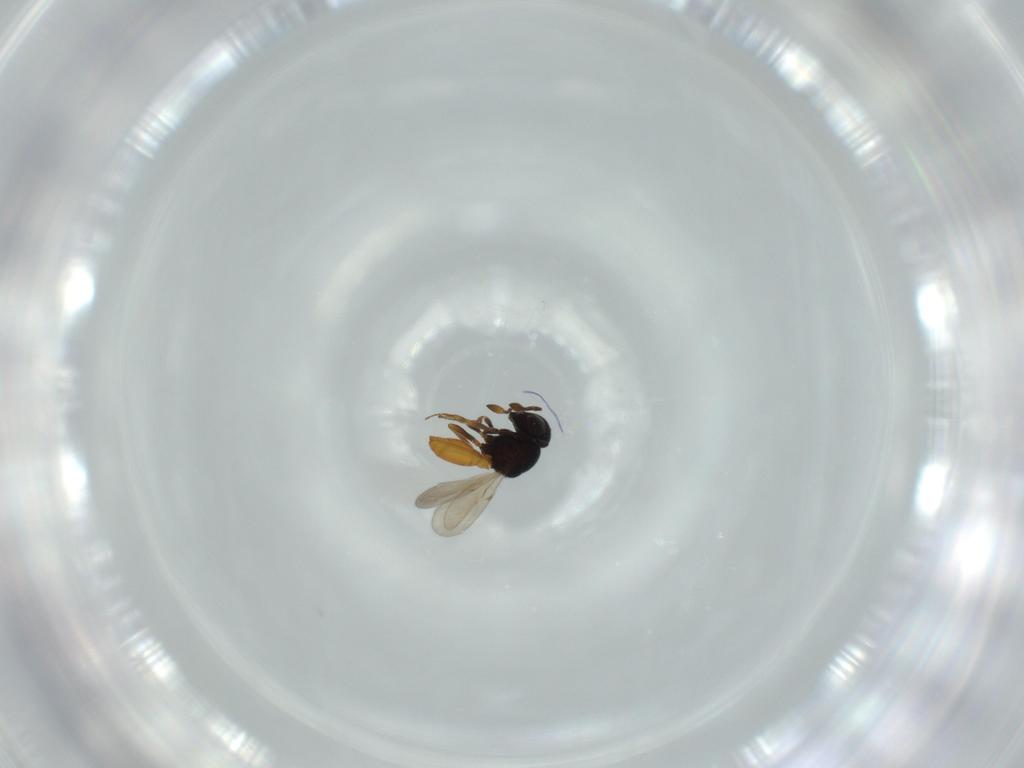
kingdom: Animalia
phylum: Arthropoda
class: Insecta
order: Hymenoptera
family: Scelionidae
